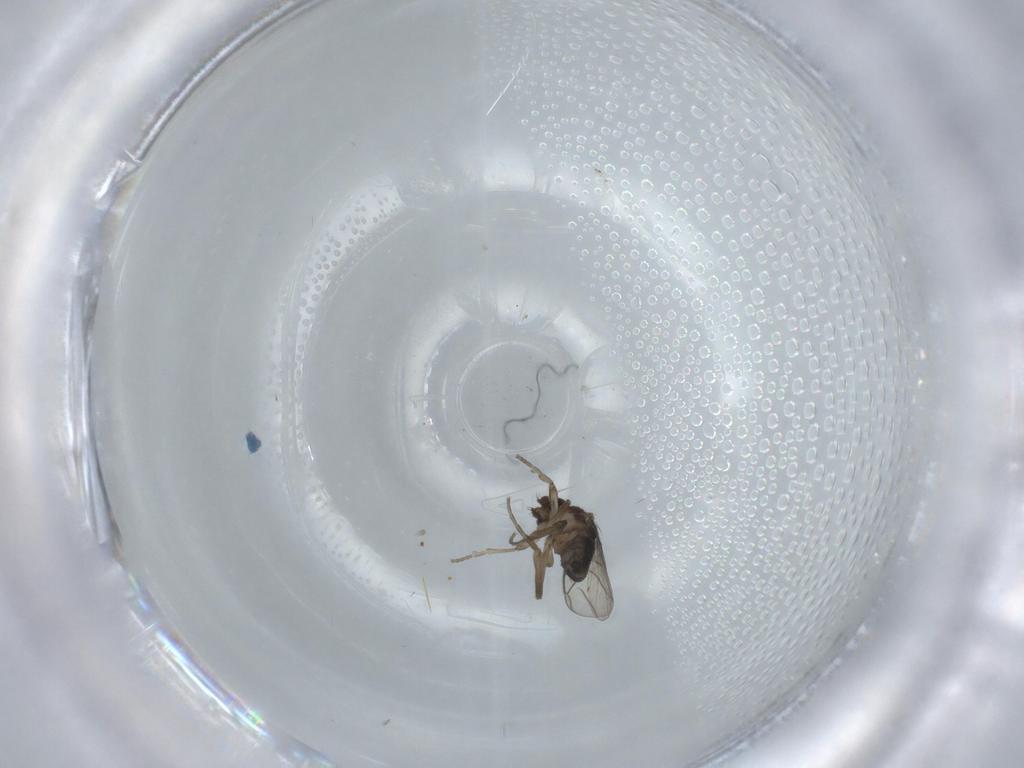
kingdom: Animalia
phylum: Arthropoda
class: Insecta
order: Diptera
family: Phoridae
